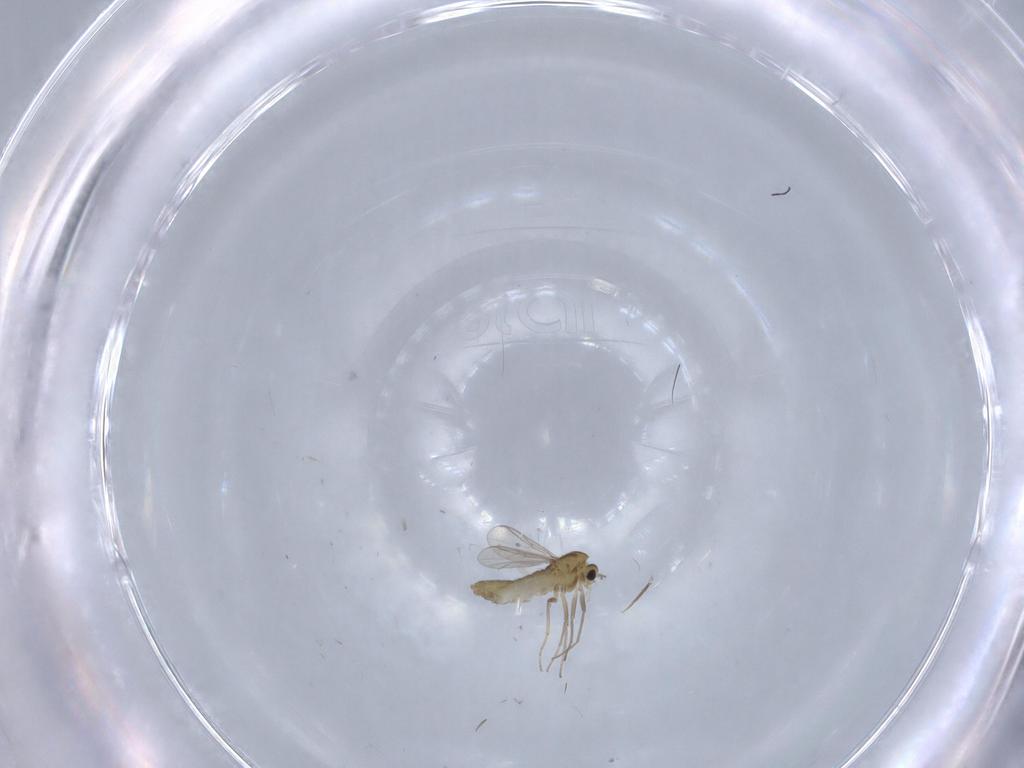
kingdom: Animalia
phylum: Arthropoda
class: Insecta
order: Diptera
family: Chironomidae
